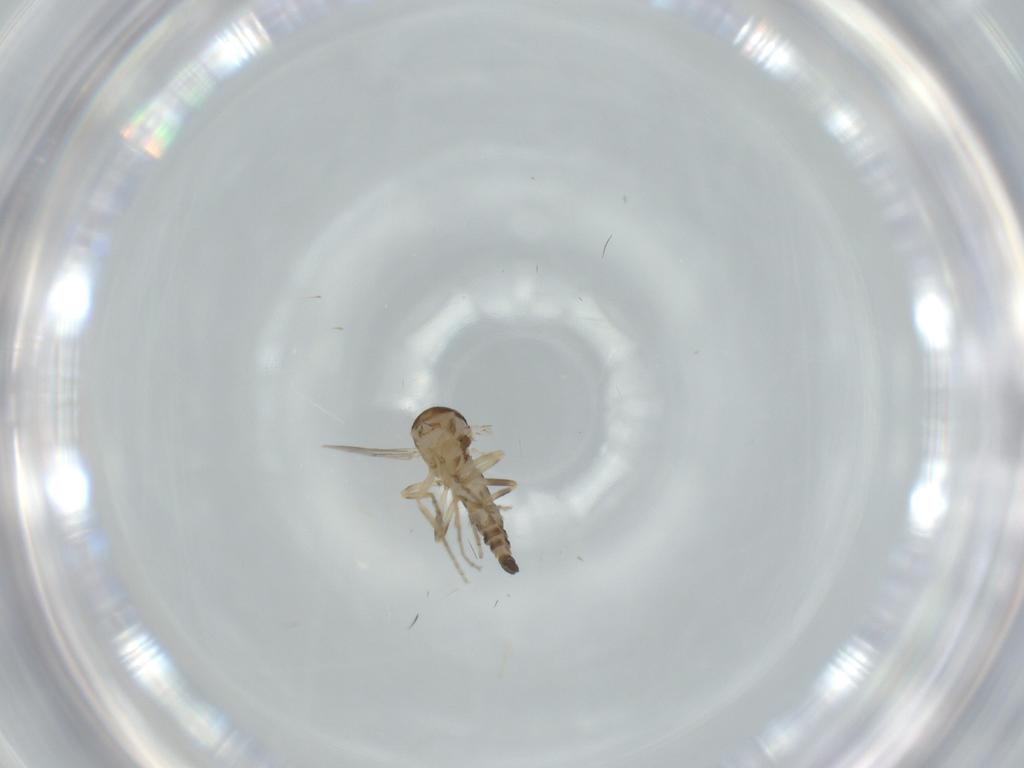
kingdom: Animalia
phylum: Arthropoda
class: Insecta
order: Diptera
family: Ceratopogonidae
